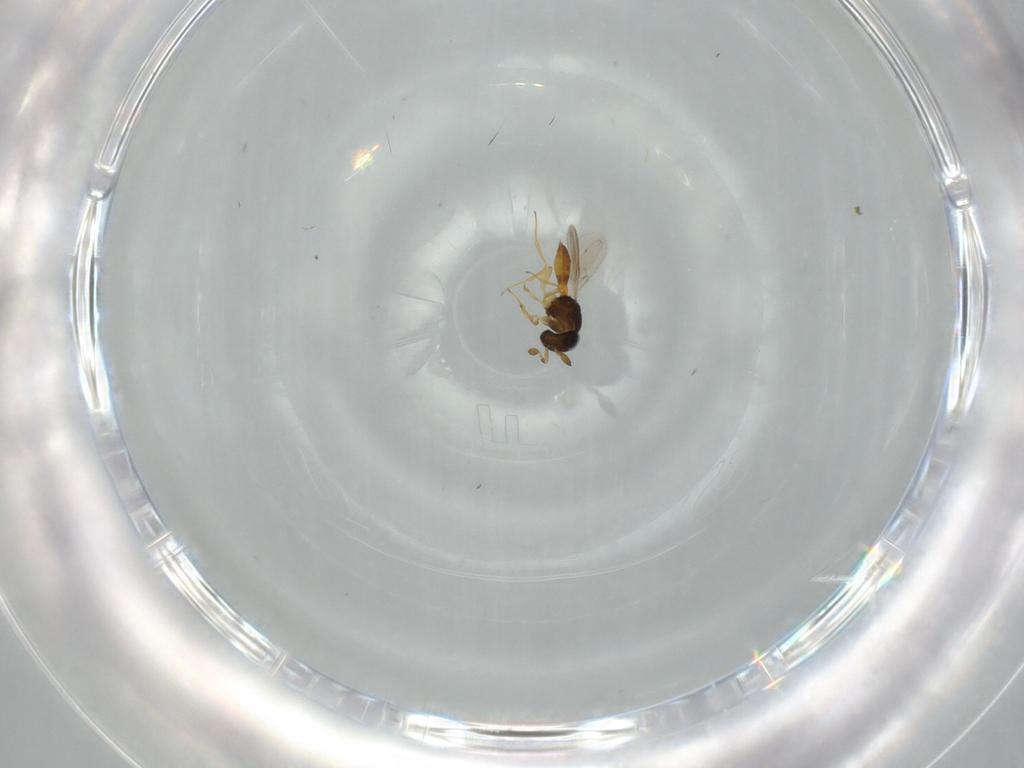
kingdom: Animalia
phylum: Arthropoda
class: Insecta
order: Hymenoptera
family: Scelionidae
